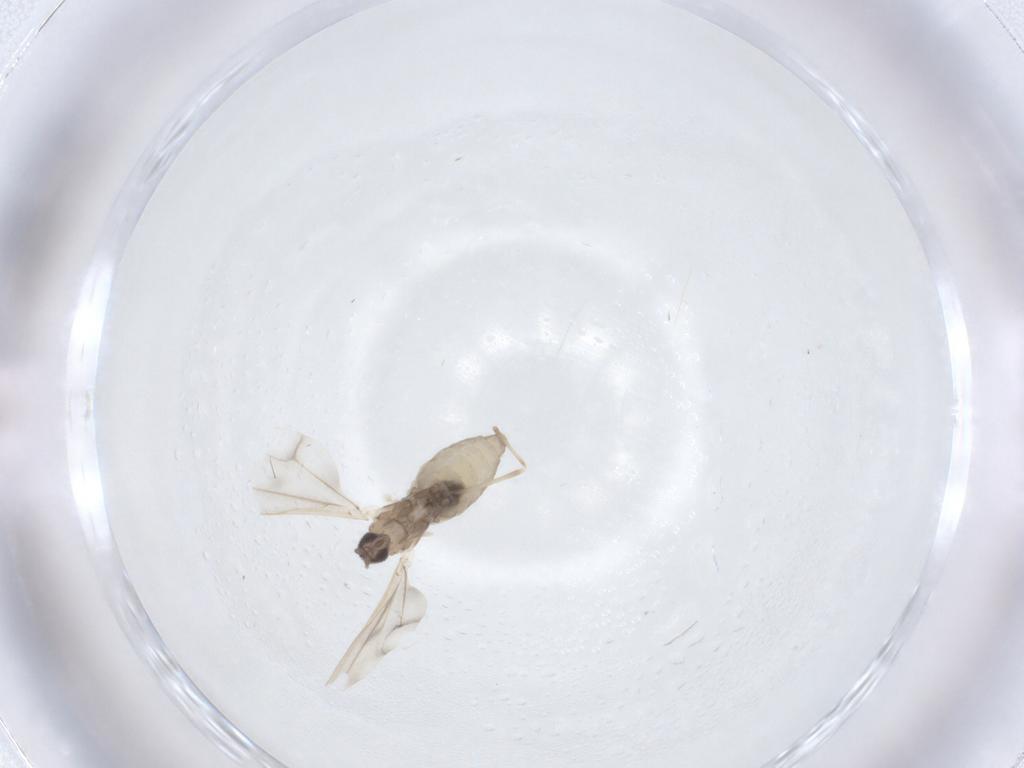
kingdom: Animalia
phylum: Arthropoda
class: Insecta
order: Diptera
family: Cecidomyiidae
